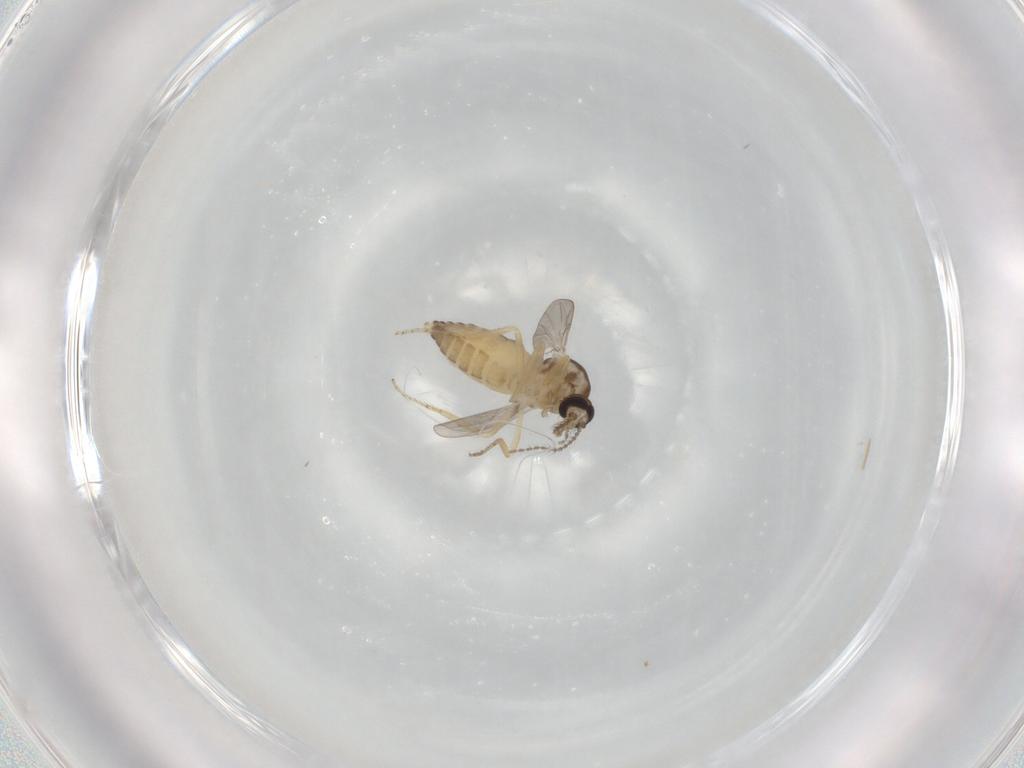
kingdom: Animalia
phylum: Arthropoda
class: Insecta
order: Diptera
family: Ceratopogonidae
